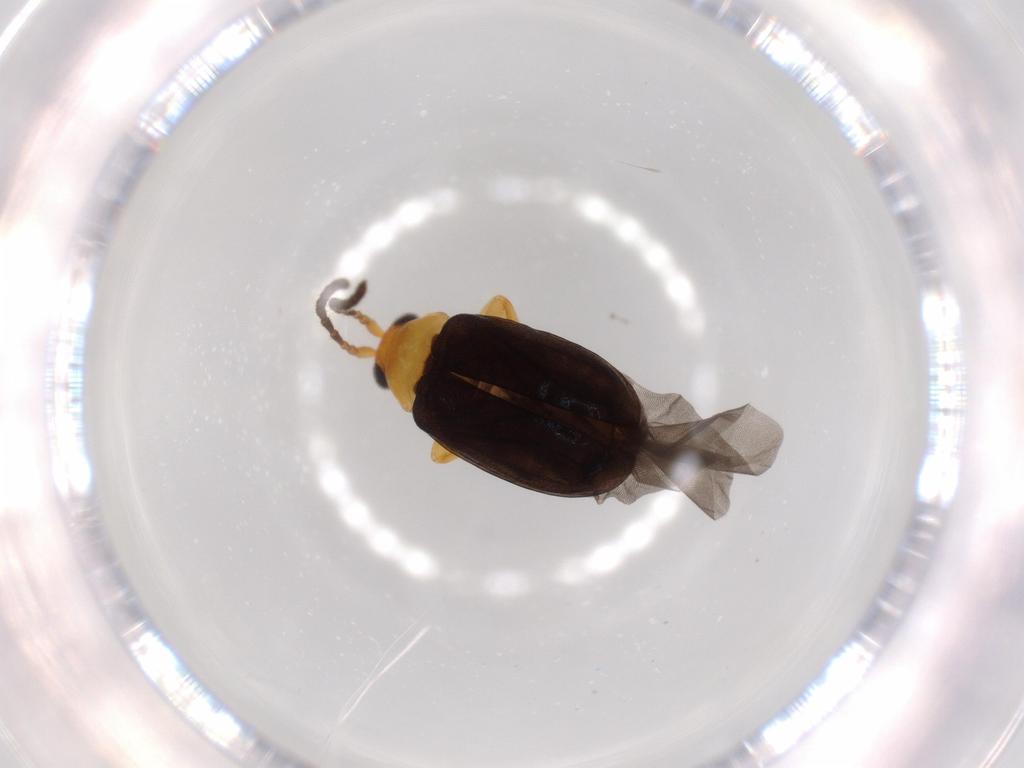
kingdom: Animalia
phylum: Arthropoda
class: Insecta
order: Coleoptera
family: Chrysomelidae
